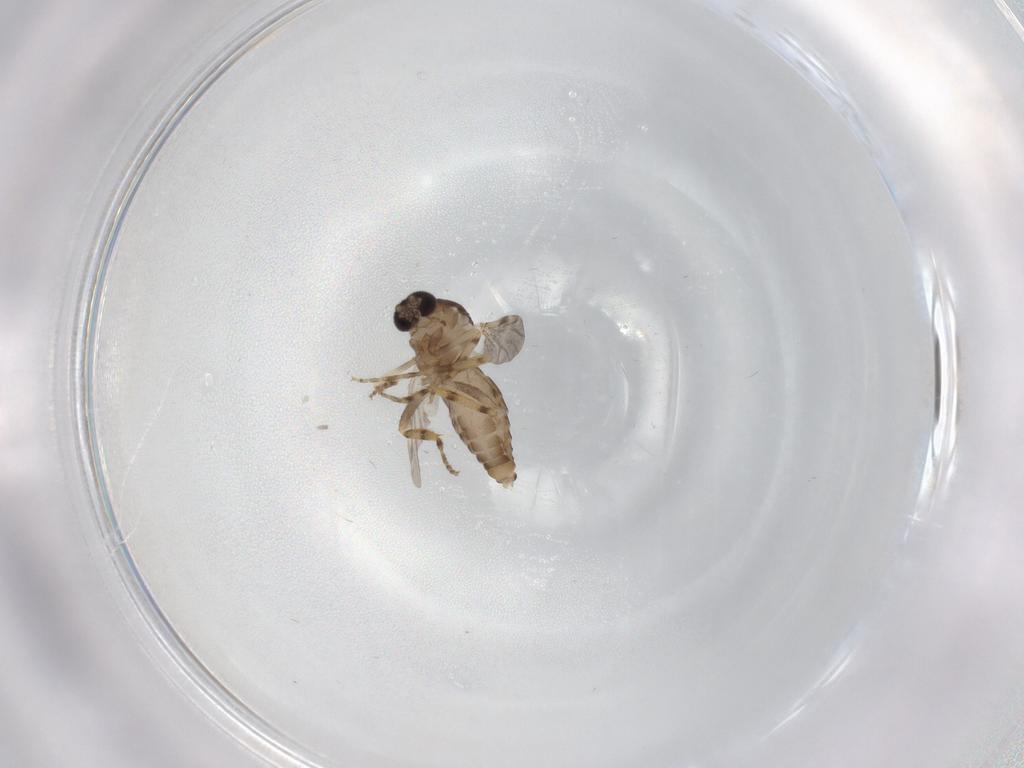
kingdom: Animalia
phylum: Arthropoda
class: Insecta
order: Diptera
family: Ceratopogonidae
